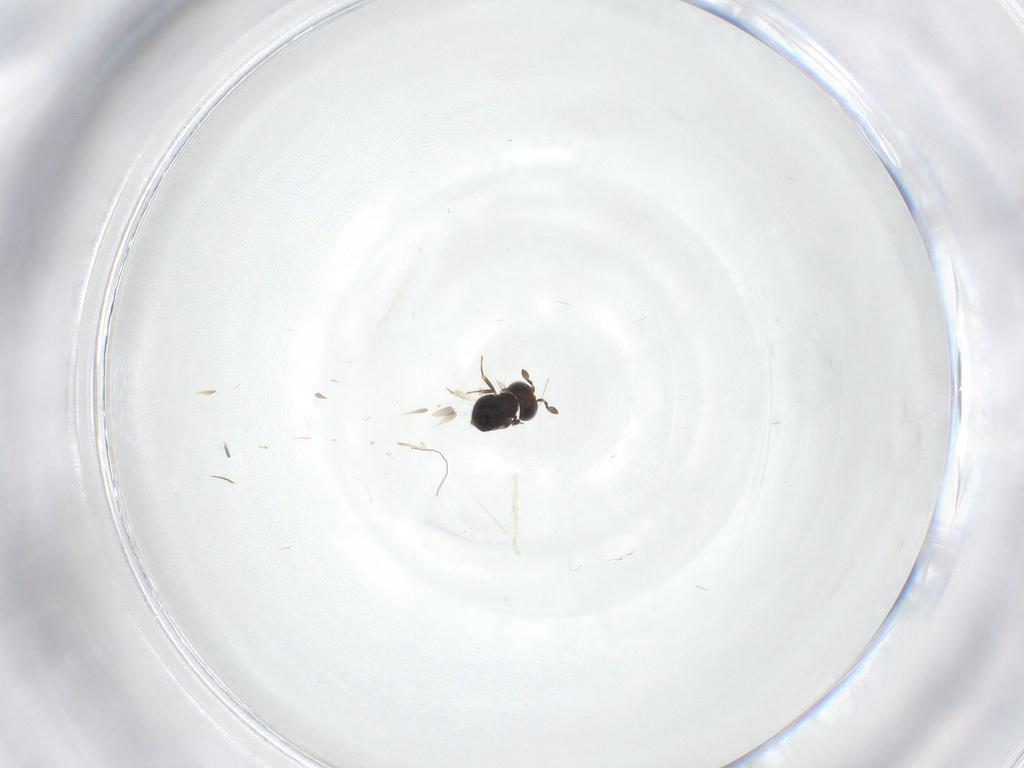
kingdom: Animalia
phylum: Arthropoda
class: Insecta
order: Hymenoptera
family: Scelionidae
